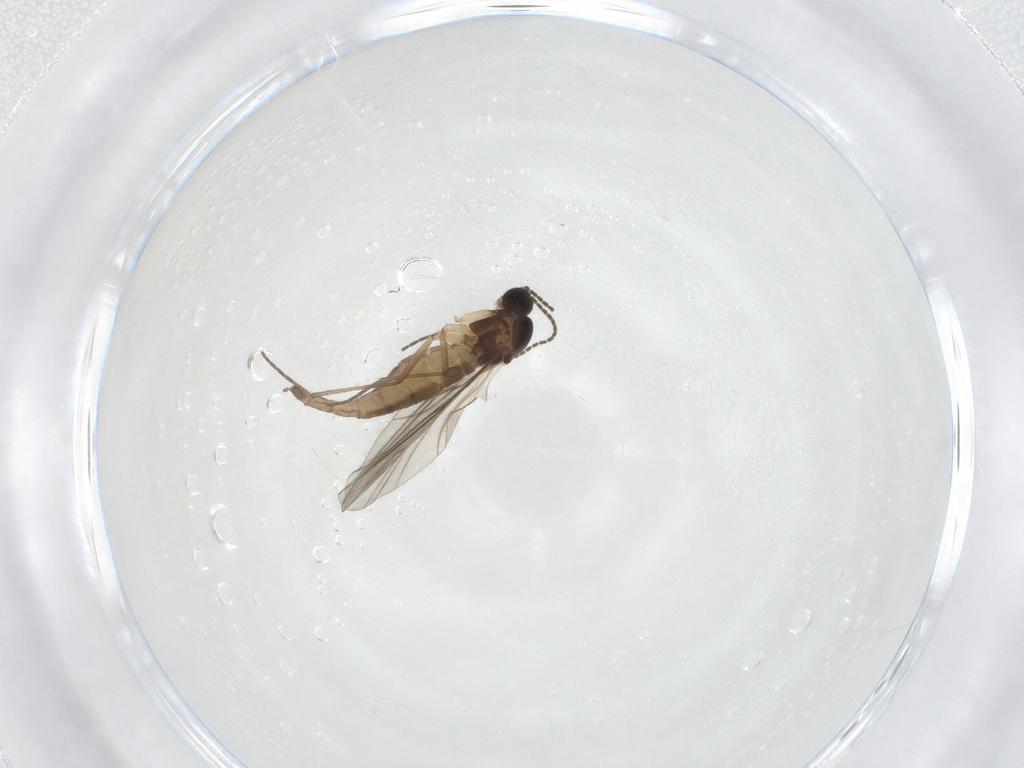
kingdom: Animalia
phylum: Arthropoda
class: Insecta
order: Diptera
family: Sciaridae
